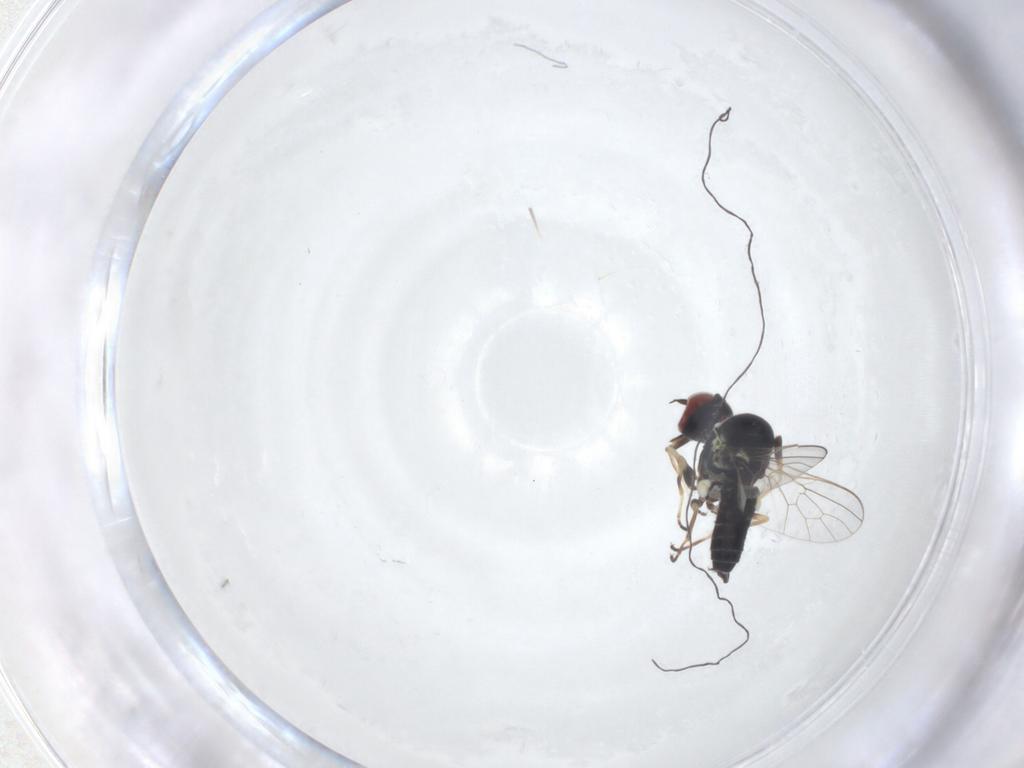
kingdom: Animalia
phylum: Arthropoda
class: Insecta
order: Diptera
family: Mythicomyiidae
